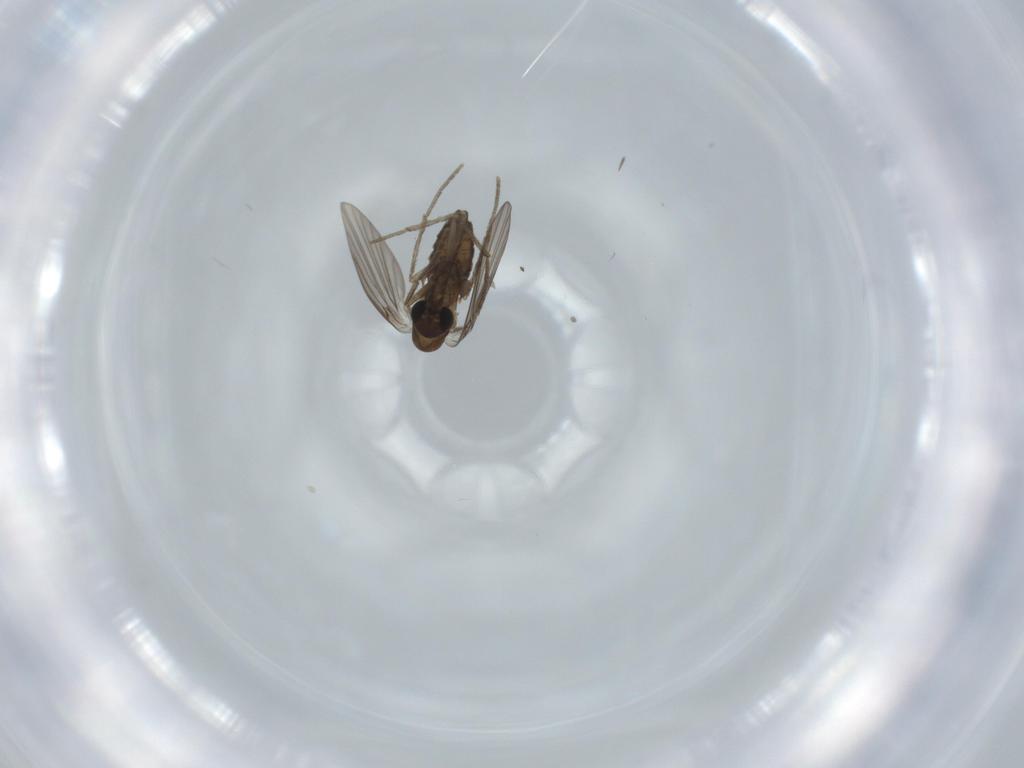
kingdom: Animalia
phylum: Arthropoda
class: Insecta
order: Diptera
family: Psychodidae
